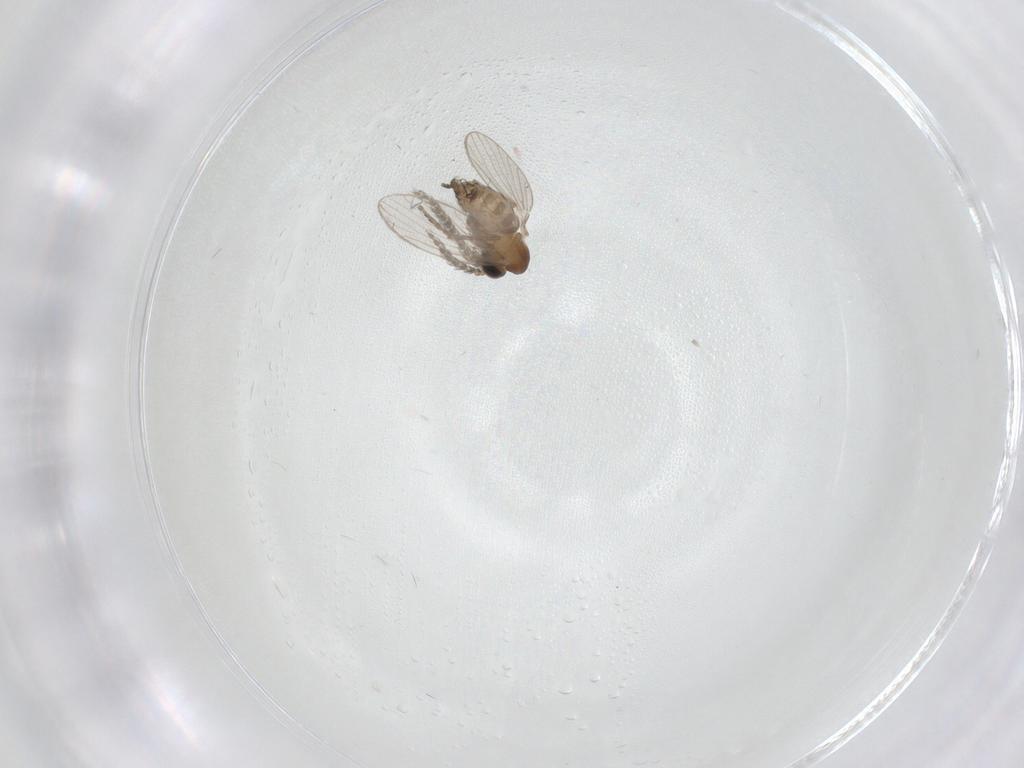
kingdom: Animalia
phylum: Arthropoda
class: Insecta
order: Diptera
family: Psychodidae
